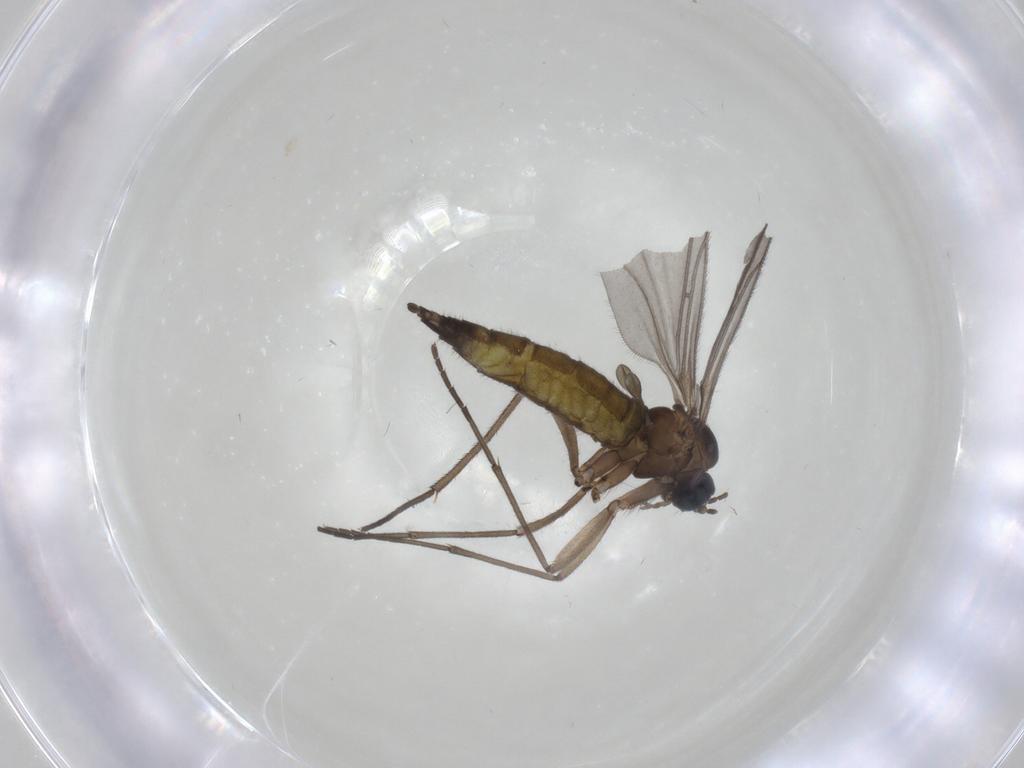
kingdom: Animalia
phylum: Arthropoda
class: Insecta
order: Diptera
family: Sciaridae
